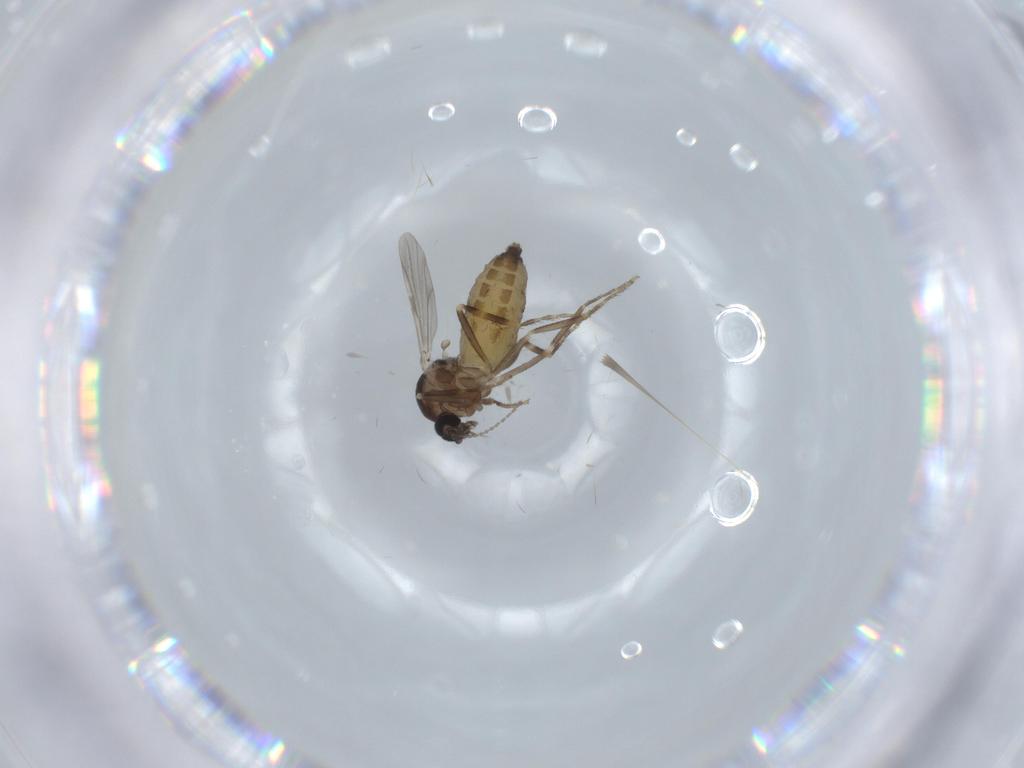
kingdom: Animalia
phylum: Arthropoda
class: Insecta
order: Diptera
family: Ceratopogonidae
